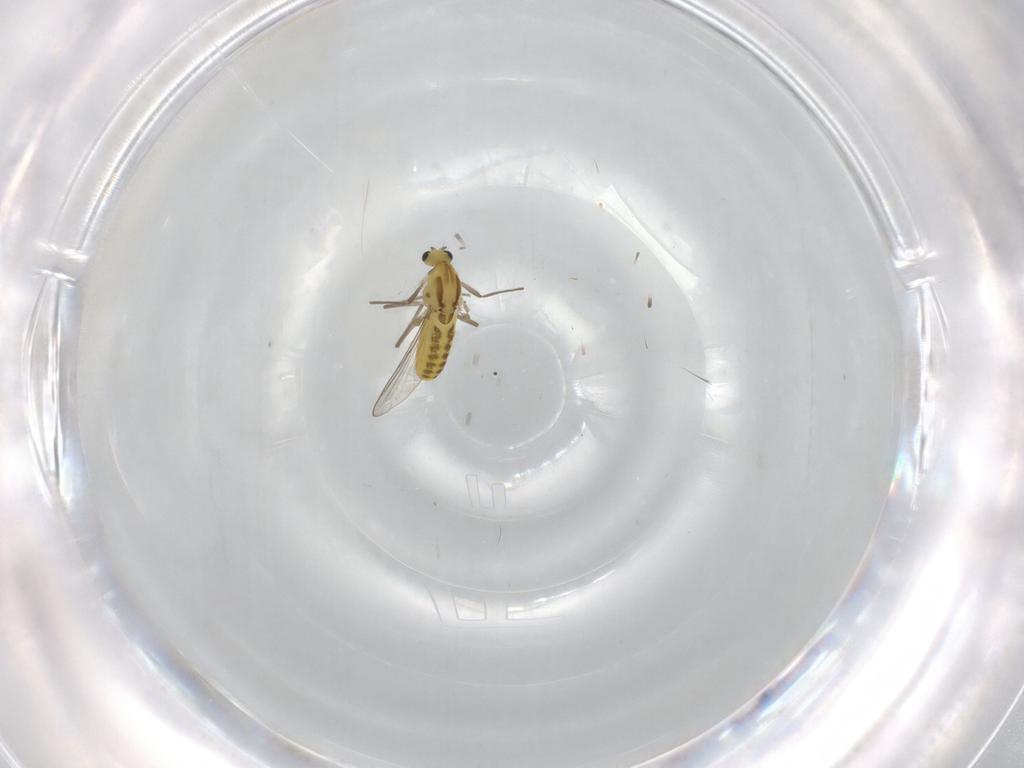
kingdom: Animalia
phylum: Arthropoda
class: Insecta
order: Diptera
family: Chironomidae
